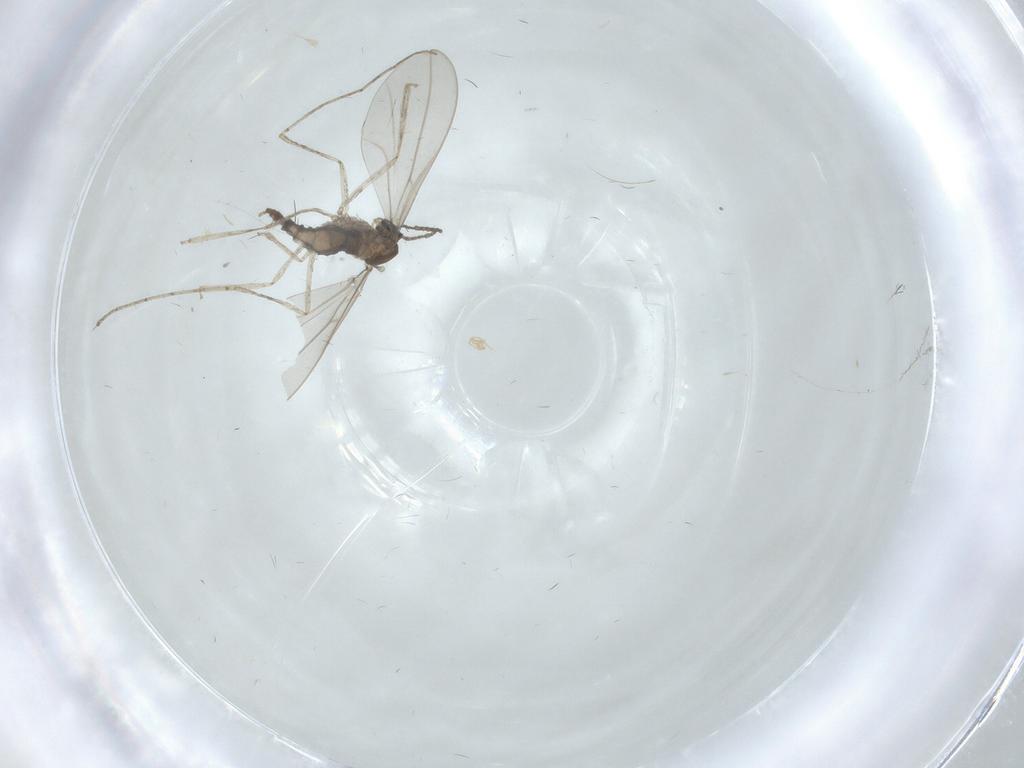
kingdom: Animalia
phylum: Arthropoda
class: Insecta
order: Diptera
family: Cecidomyiidae
